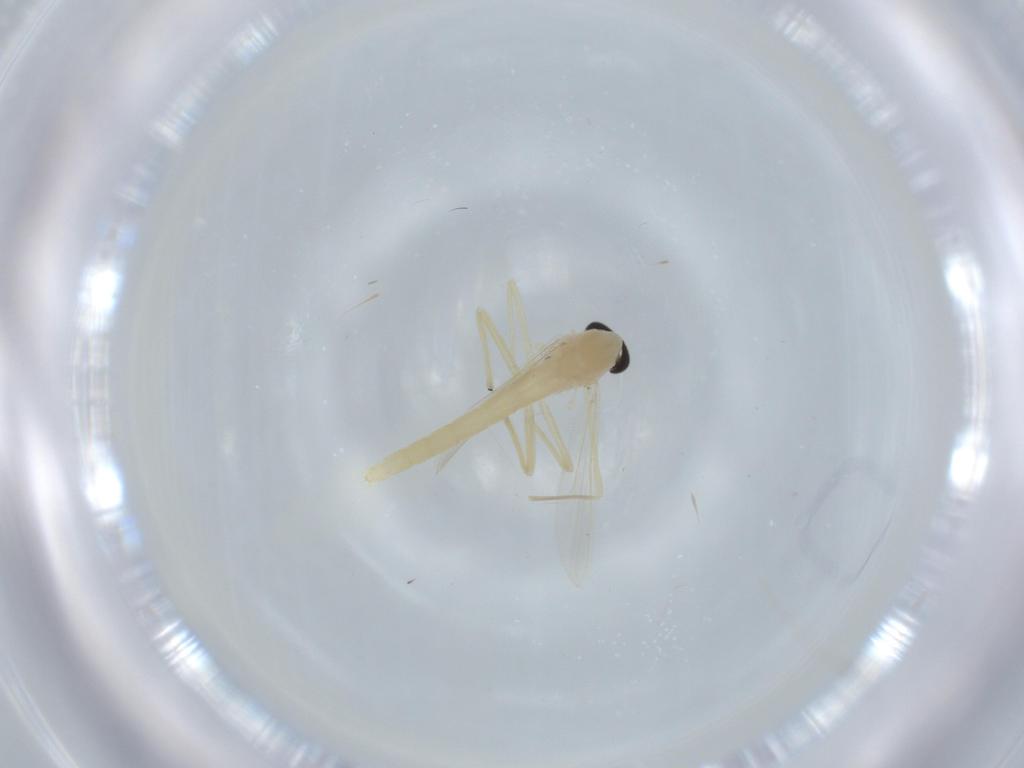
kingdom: Animalia
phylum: Arthropoda
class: Insecta
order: Diptera
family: Chironomidae
